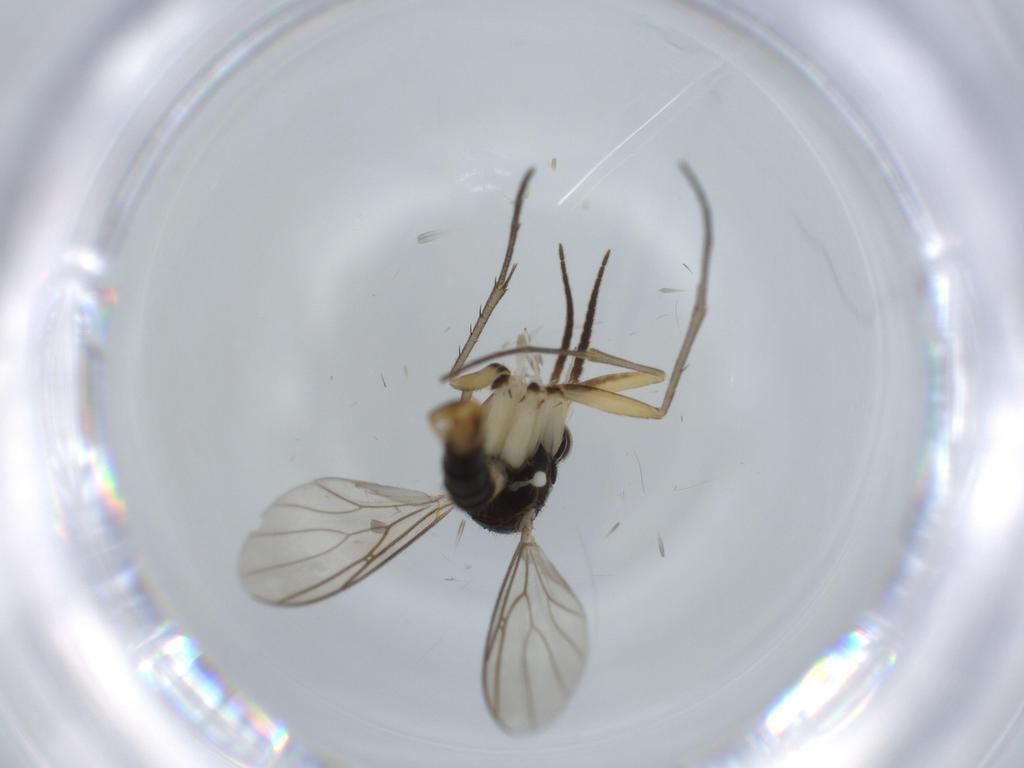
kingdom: Animalia
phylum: Arthropoda
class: Insecta
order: Diptera
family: Mycetophilidae
